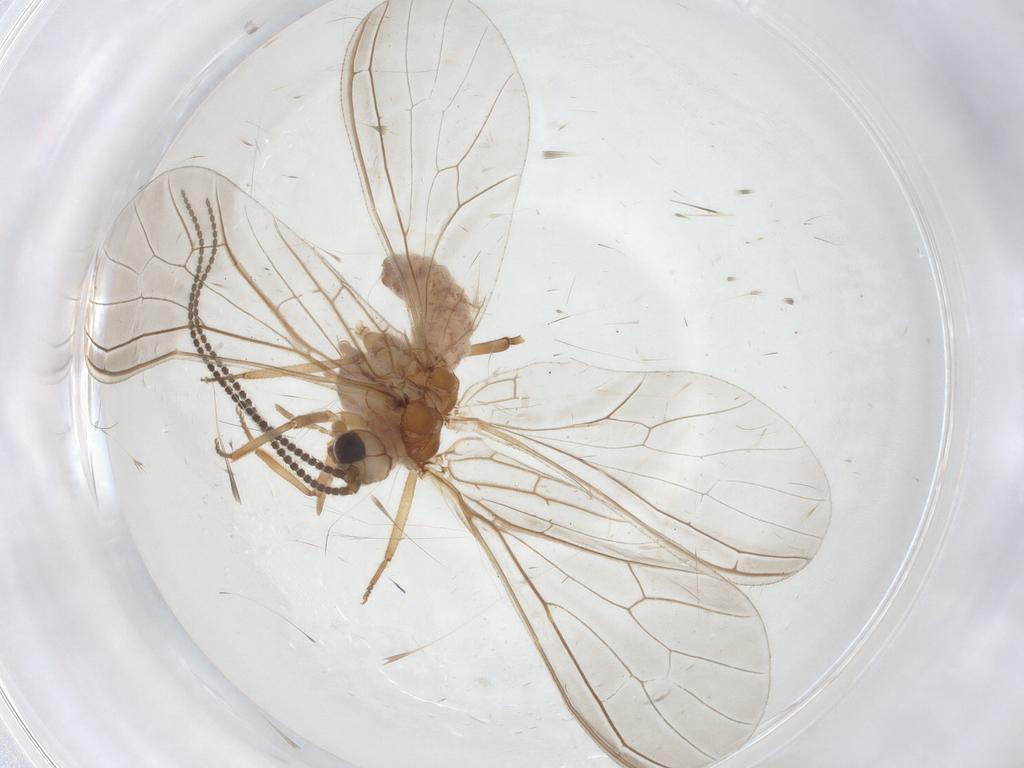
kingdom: Animalia
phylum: Arthropoda
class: Insecta
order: Neuroptera
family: Coniopterygidae
